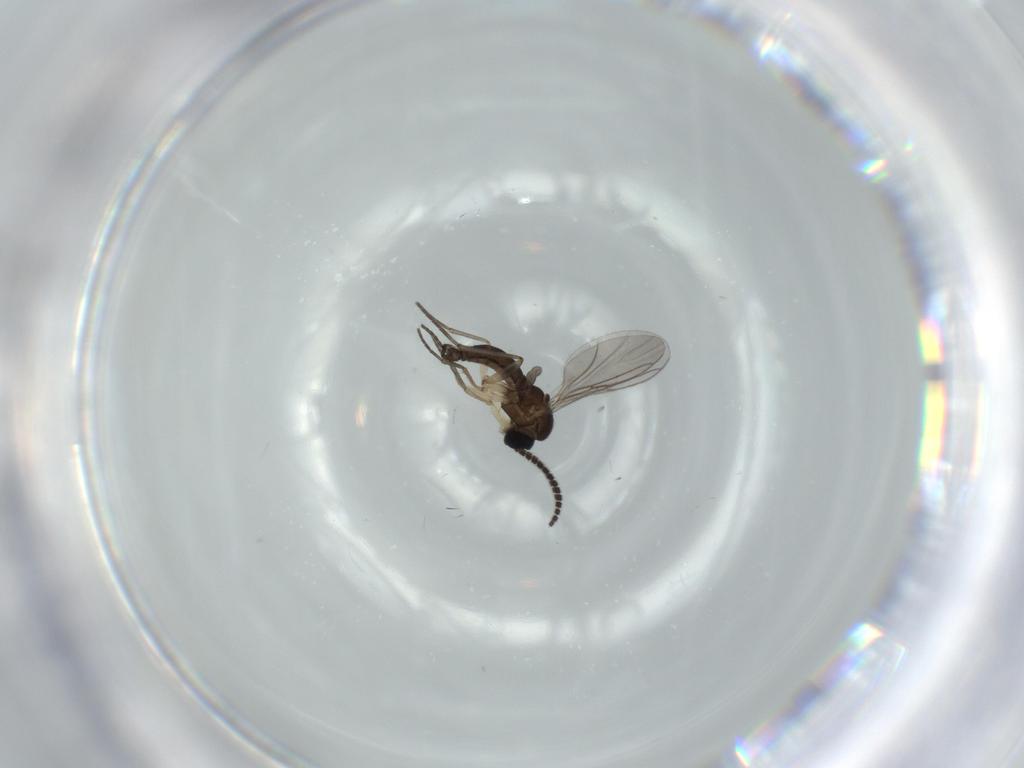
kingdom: Animalia
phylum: Arthropoda
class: Insecta
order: Diptera
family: Sciaridae
